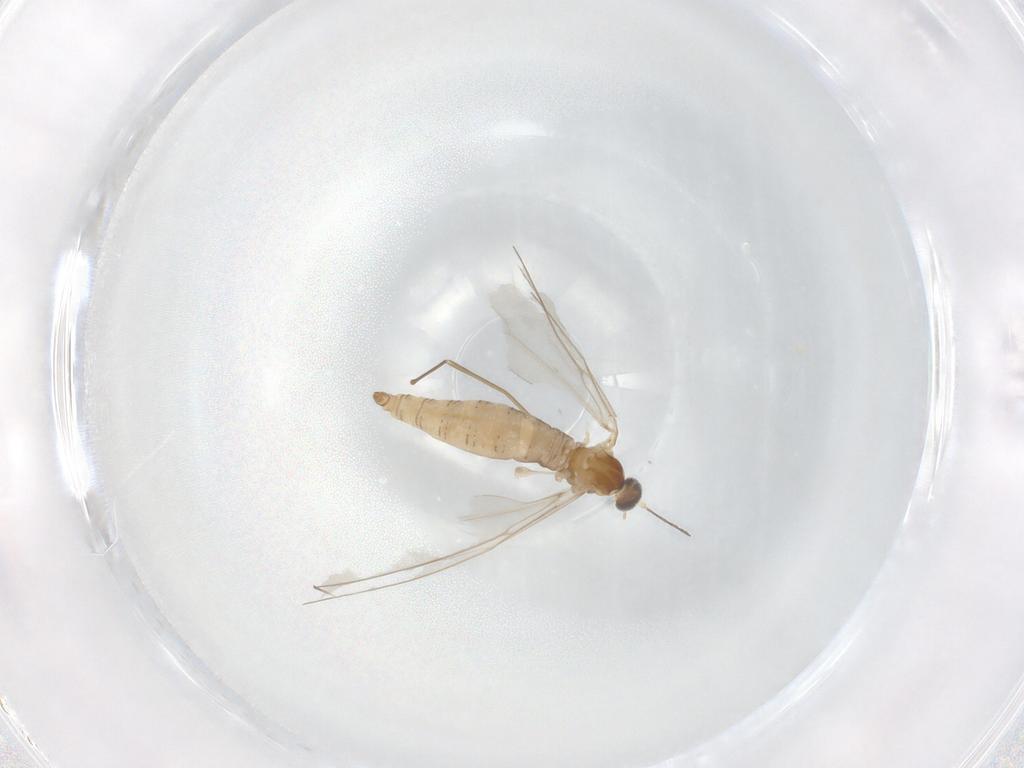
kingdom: Animalia
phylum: Arthropoda
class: Insecta
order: Diptera
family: Cecidomyiidae
